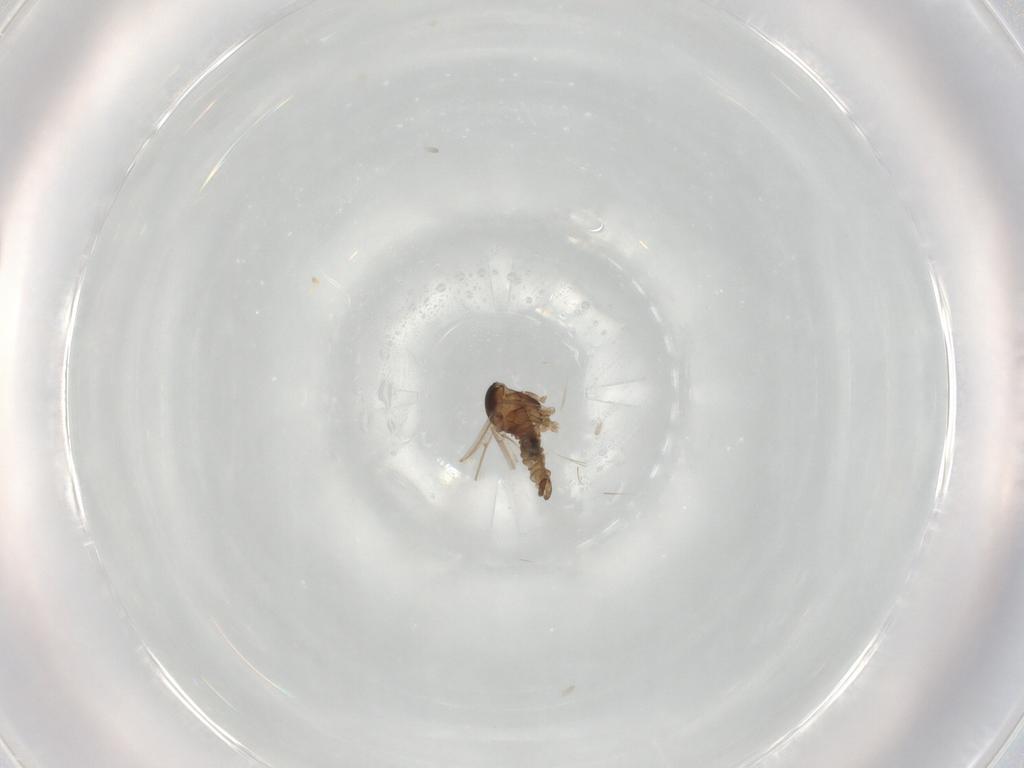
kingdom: Animalia
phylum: Arthropoda
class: Insecta
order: Diptera
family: Cecidomyiidae
